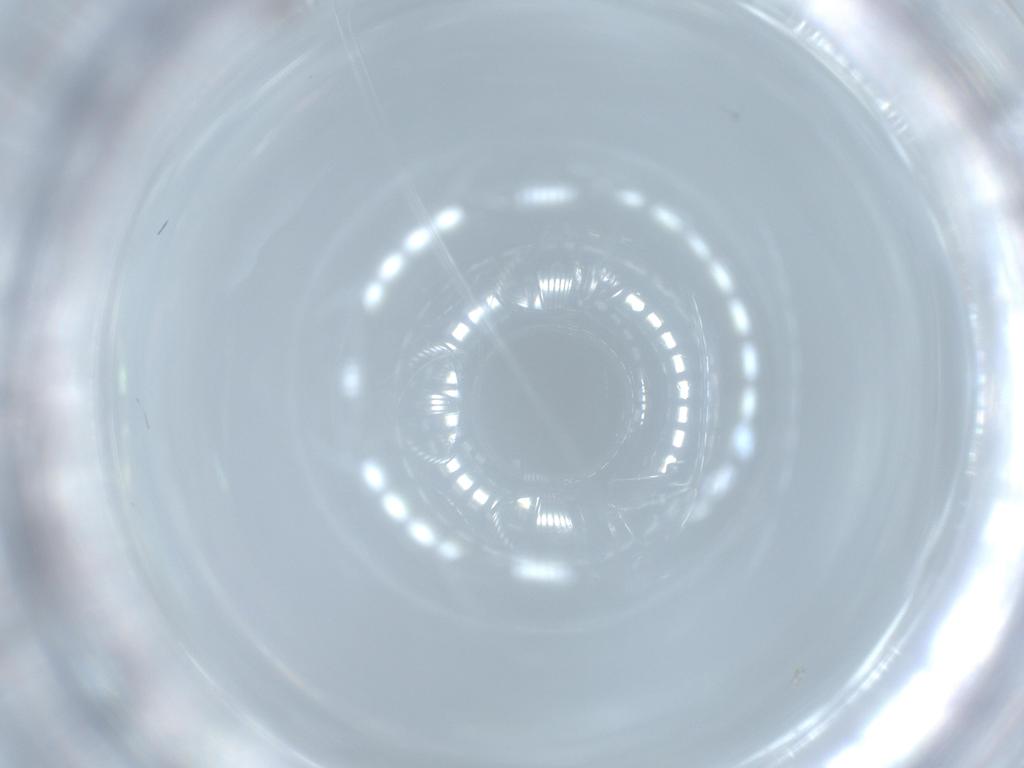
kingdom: Animalia
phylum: Arthropoda
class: Insecta
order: Hymenoptera
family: Signiphoridae
